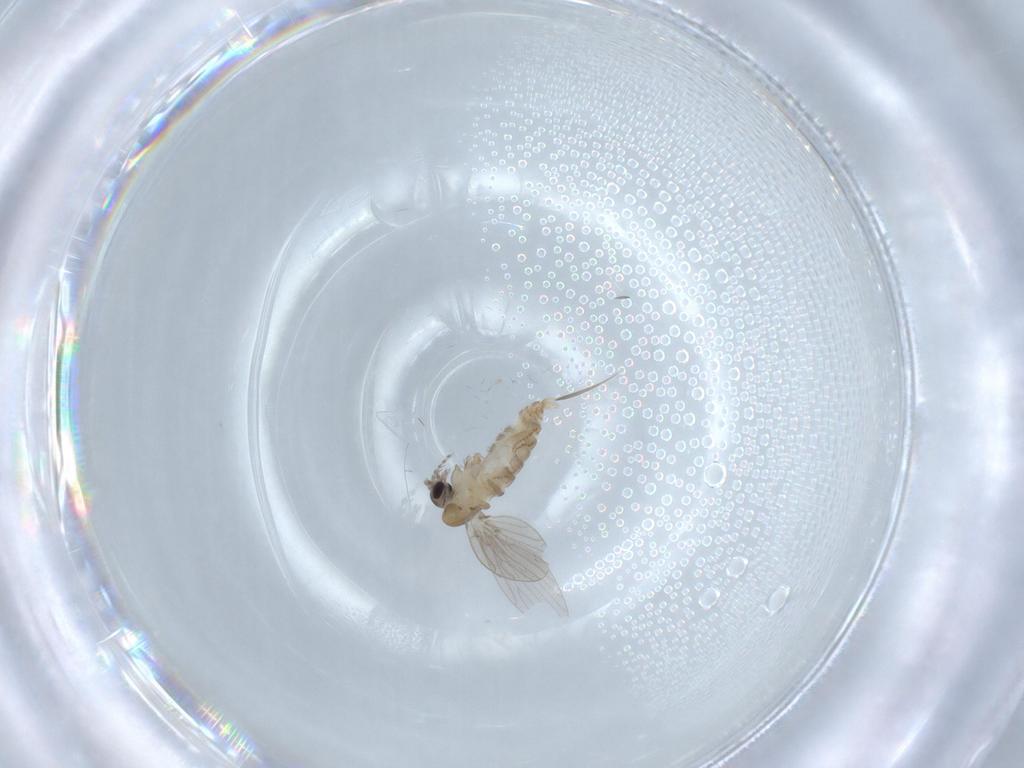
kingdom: Animalia
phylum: Arthropoda
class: Insecta
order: Diptera
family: Psychodidae
